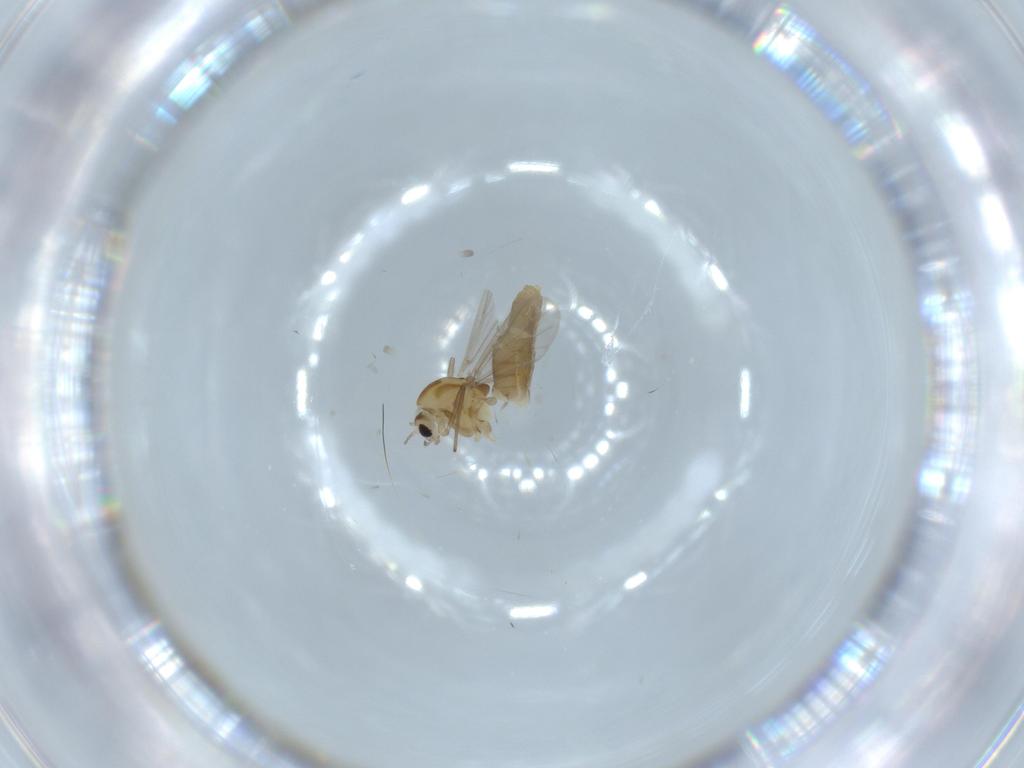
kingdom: Animalia
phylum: Arthropoda
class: Insecta
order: Diptera
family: Chironomidae
